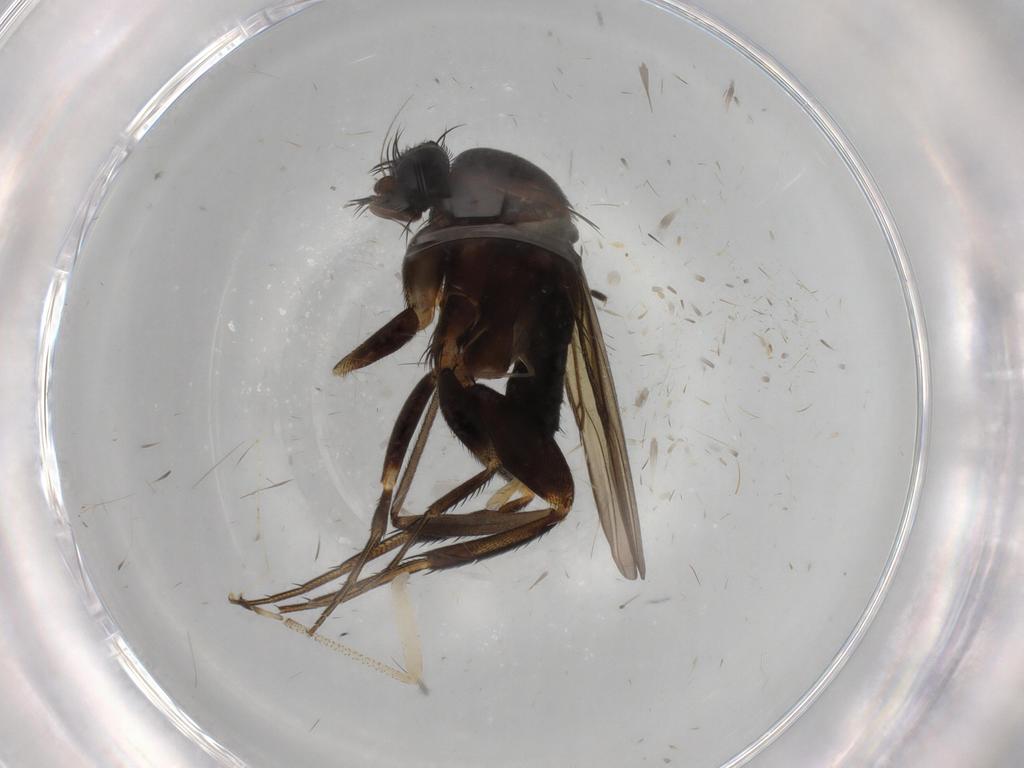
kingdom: Animalia
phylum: Arthropoda
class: Insecta
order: Diptera
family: Phoridae
